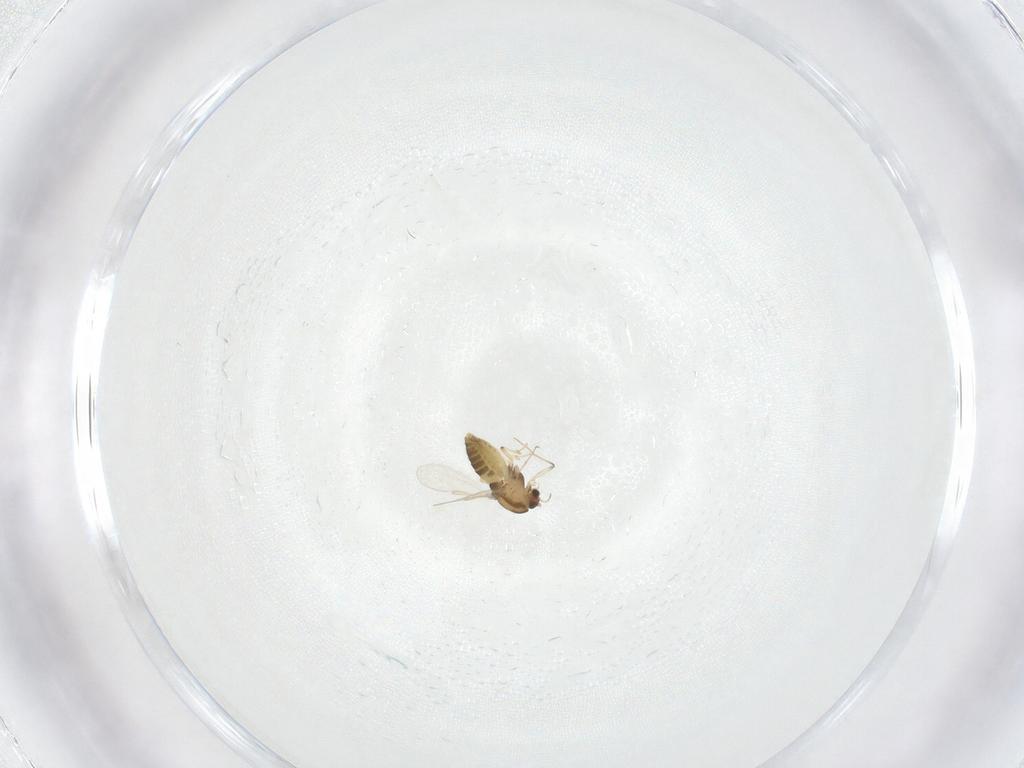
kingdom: Animalia
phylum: Arthropoda
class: Insecta
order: Diptera
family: Chironomidae
